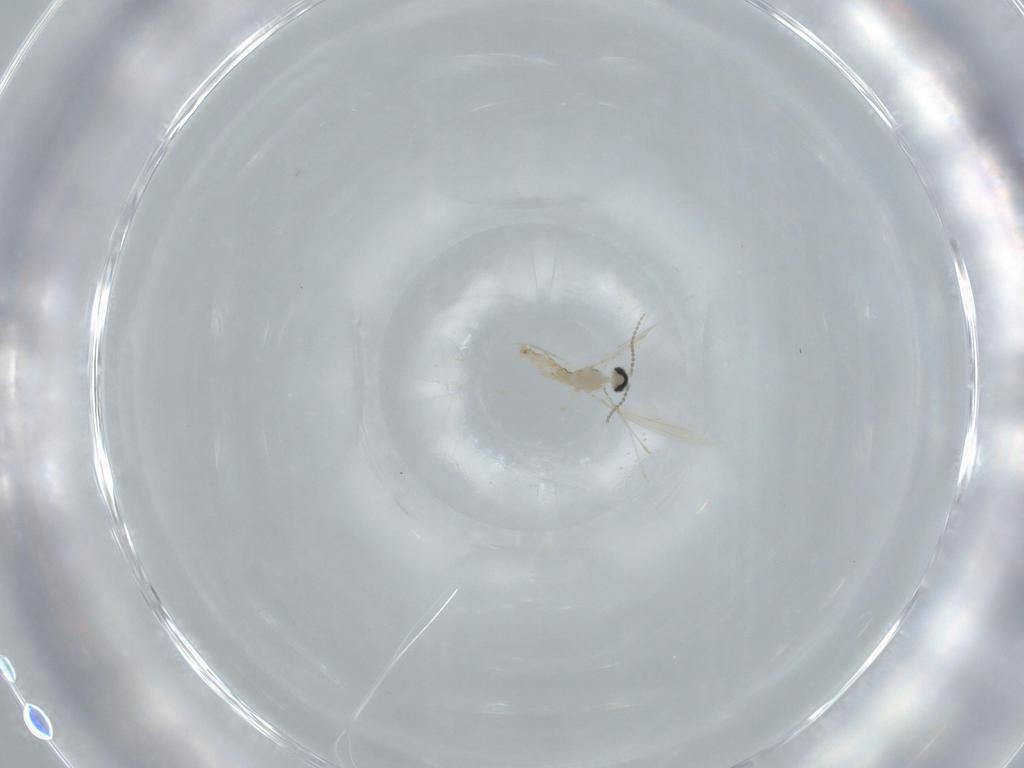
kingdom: Animalia
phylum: Arthropoda
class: Insecta
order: Diptera
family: Cecidomyiidae
